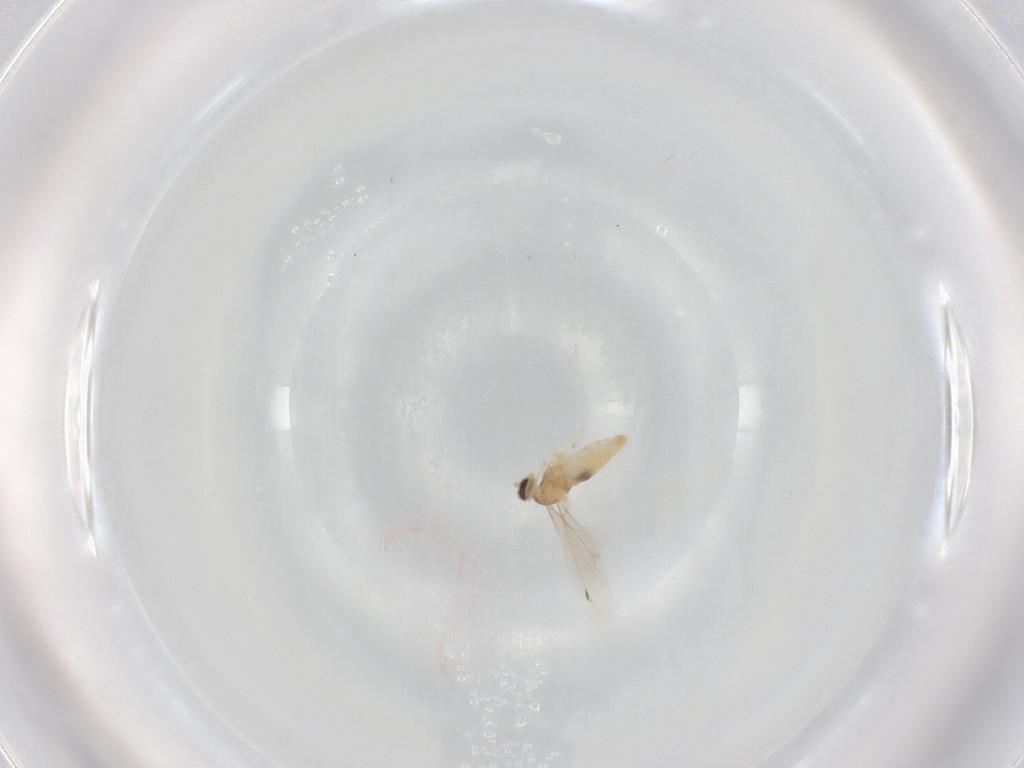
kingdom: Animalia
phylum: Arthropoda
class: Insecta
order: Diptera
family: Cecidomyiidae
